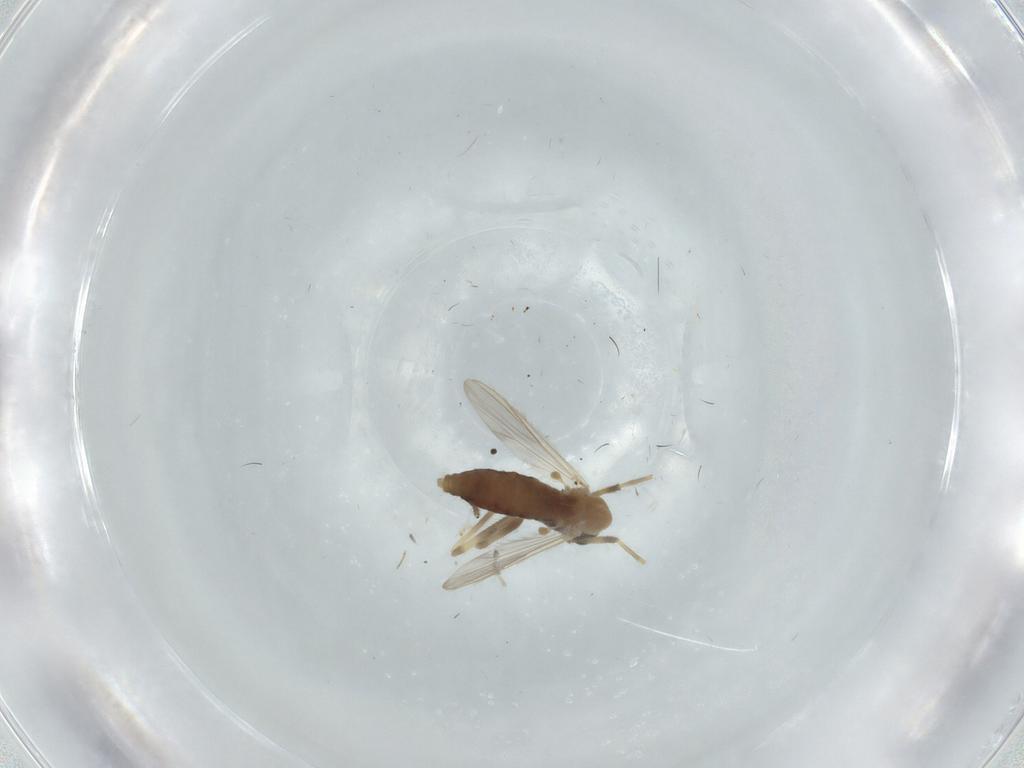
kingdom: Animalia
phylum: Arthropoda
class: Insecta
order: Diptera
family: Chironomidae
